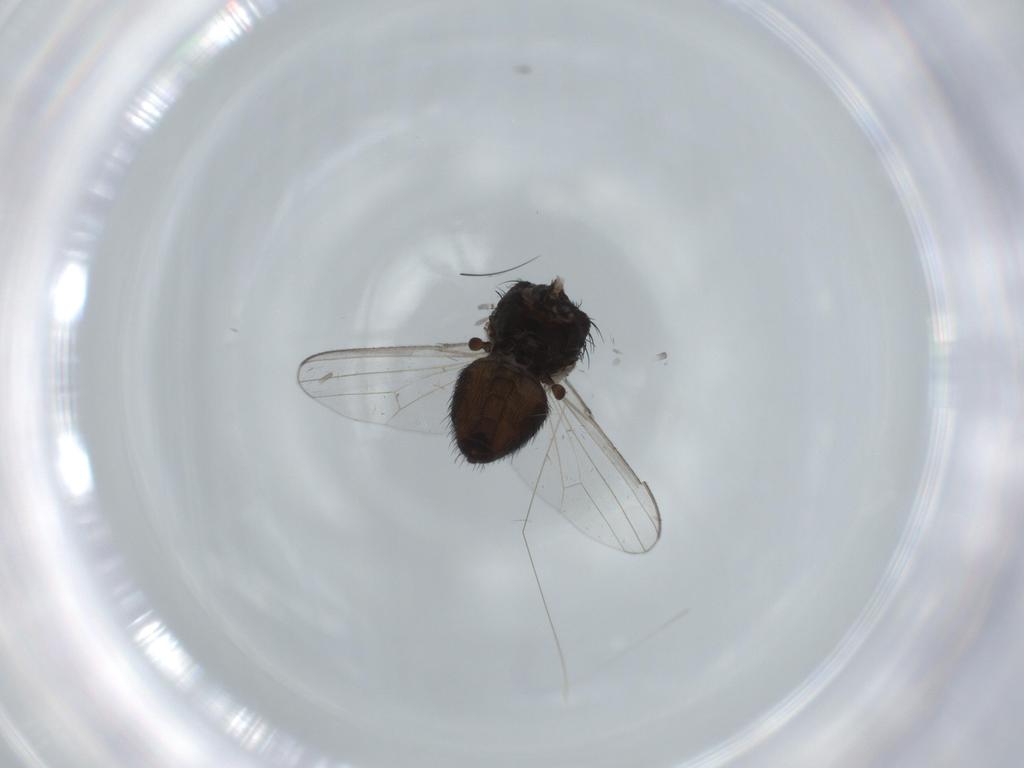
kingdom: Animalia
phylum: Arthropoda
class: Insecta
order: Diptera
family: Milichiidae
